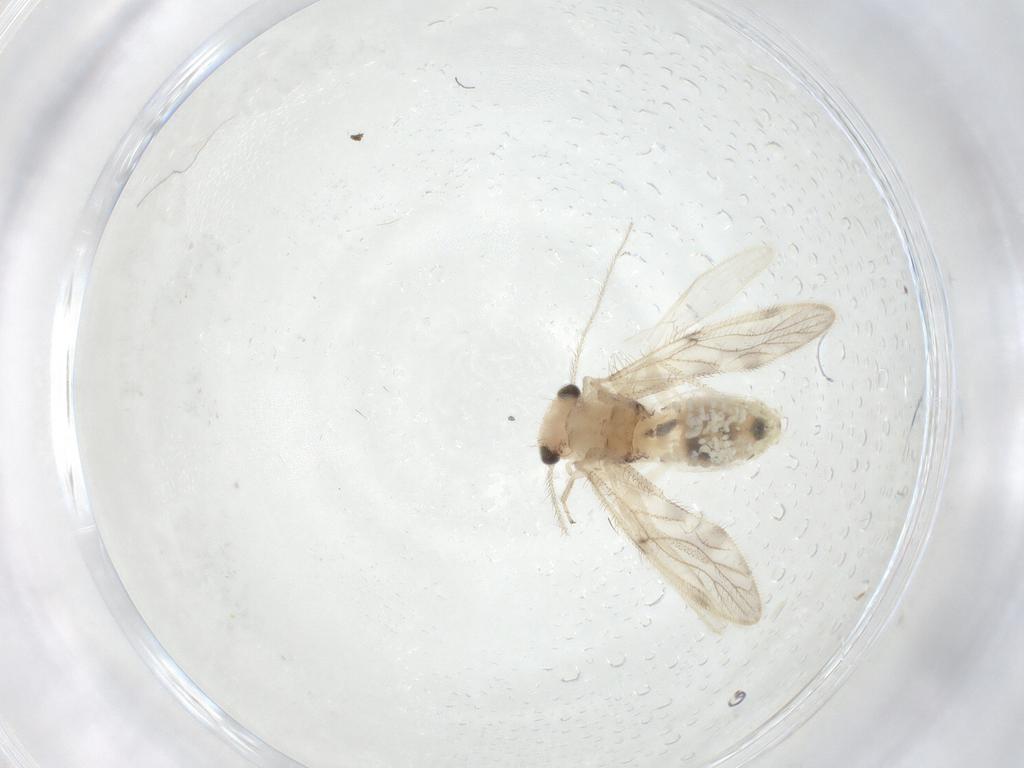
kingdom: Animalia
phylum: Arthropoda
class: Insecta
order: Psocodea
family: Pseudocaeciliidae
